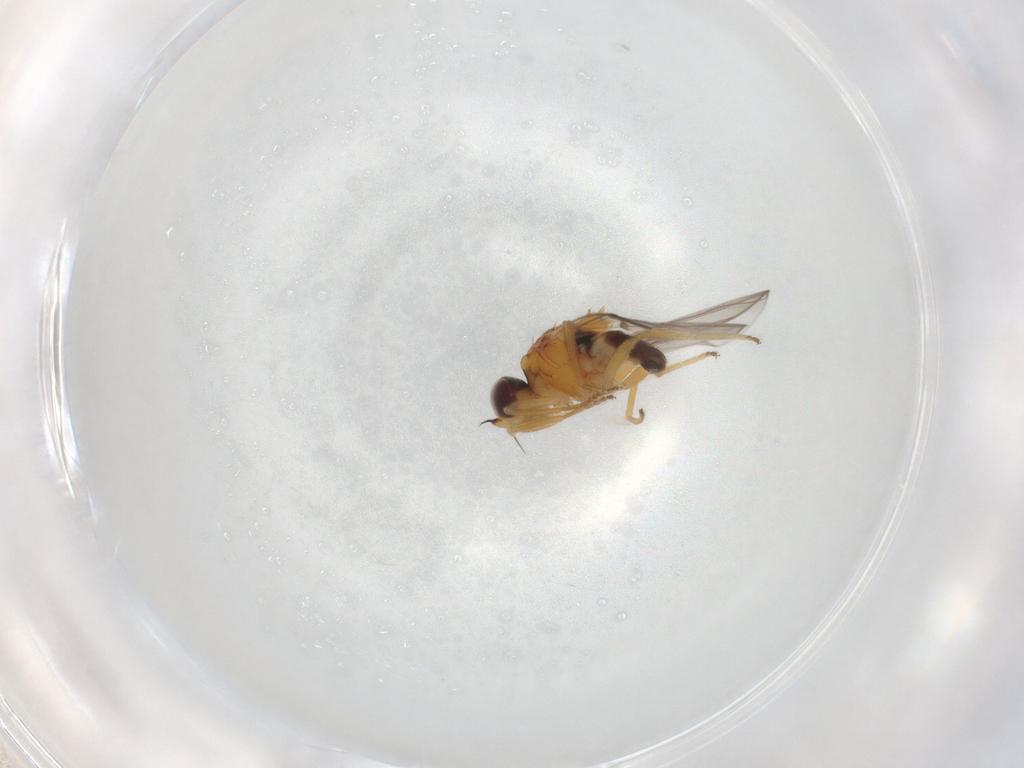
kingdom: Animalia
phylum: Arthropoda
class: Insecta
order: Diptera
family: Chloropidae
